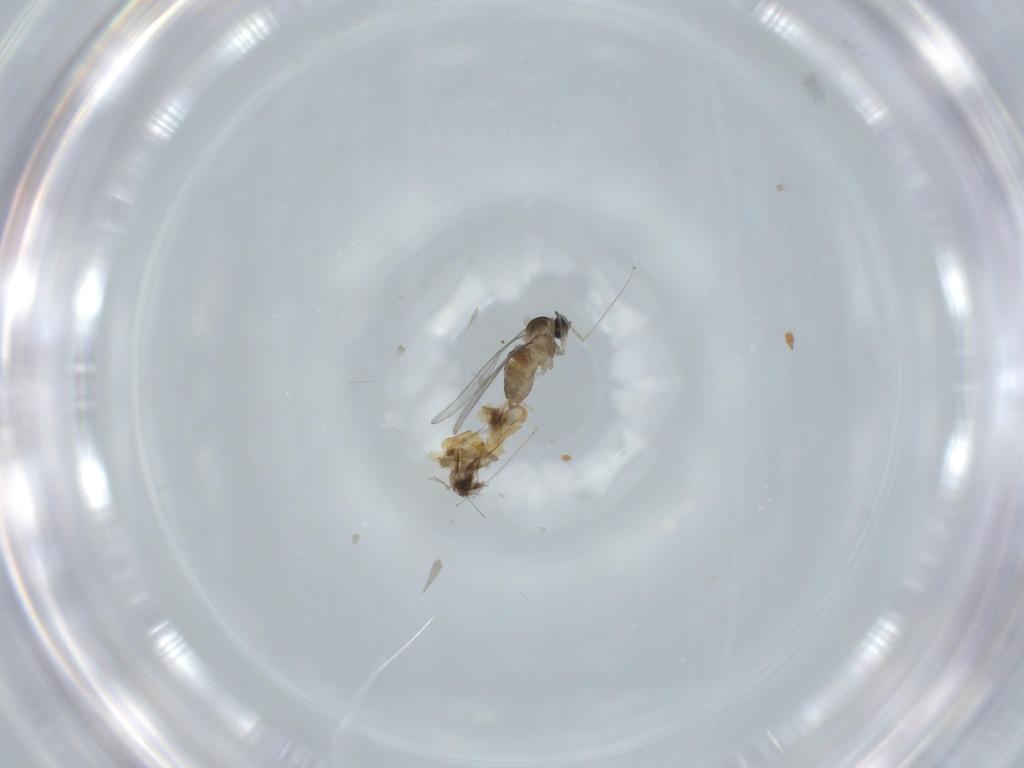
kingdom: Animalia
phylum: Arthropoda
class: Insecta
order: Diptera
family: Cecidomyiidae
